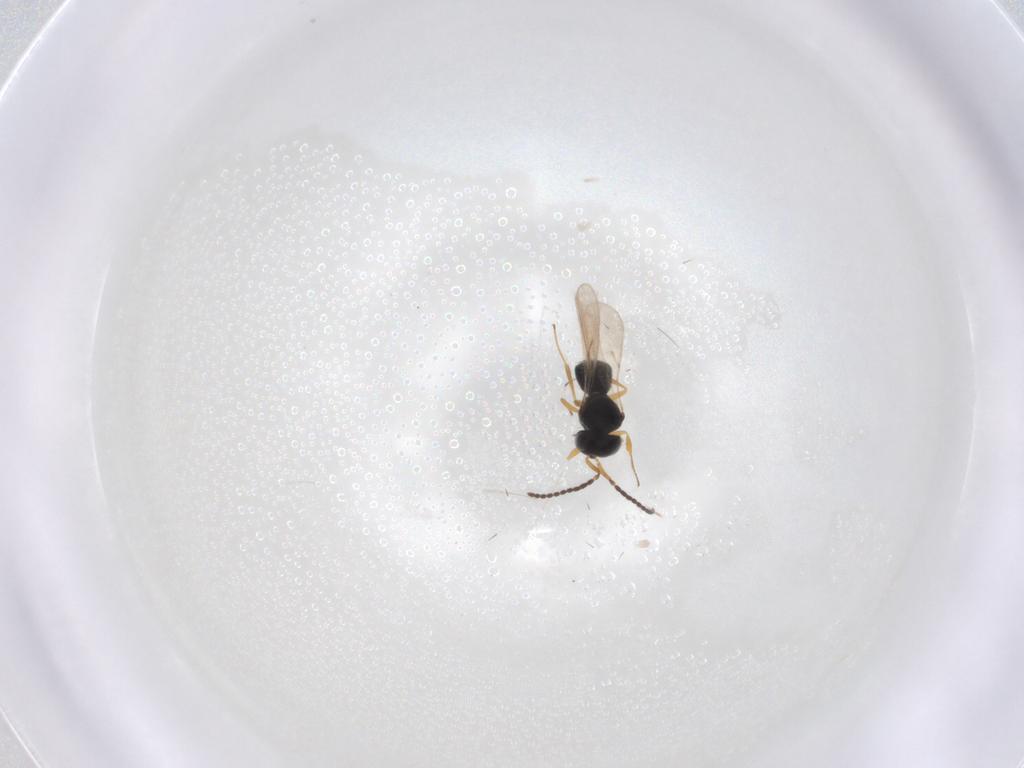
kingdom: Animalia
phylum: Arthropoda
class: Insecta
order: Hymenoptera
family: Scelionidae
